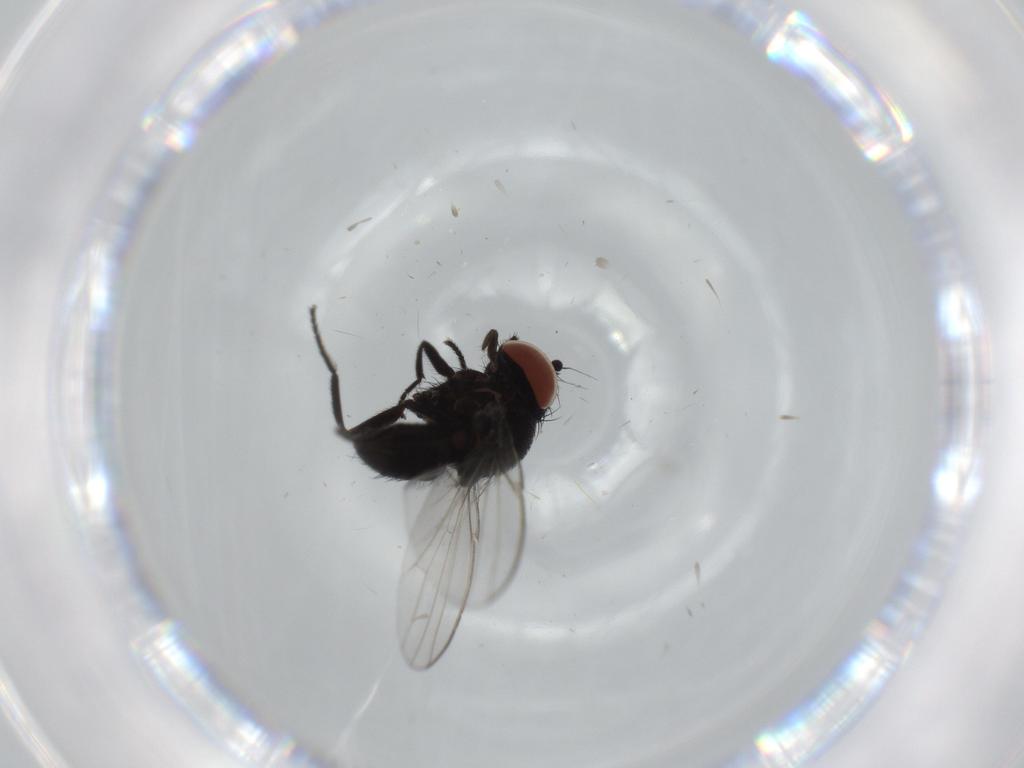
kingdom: Animalia
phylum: Arthropoda
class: Insecta
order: Diptera
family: Milichiidae
